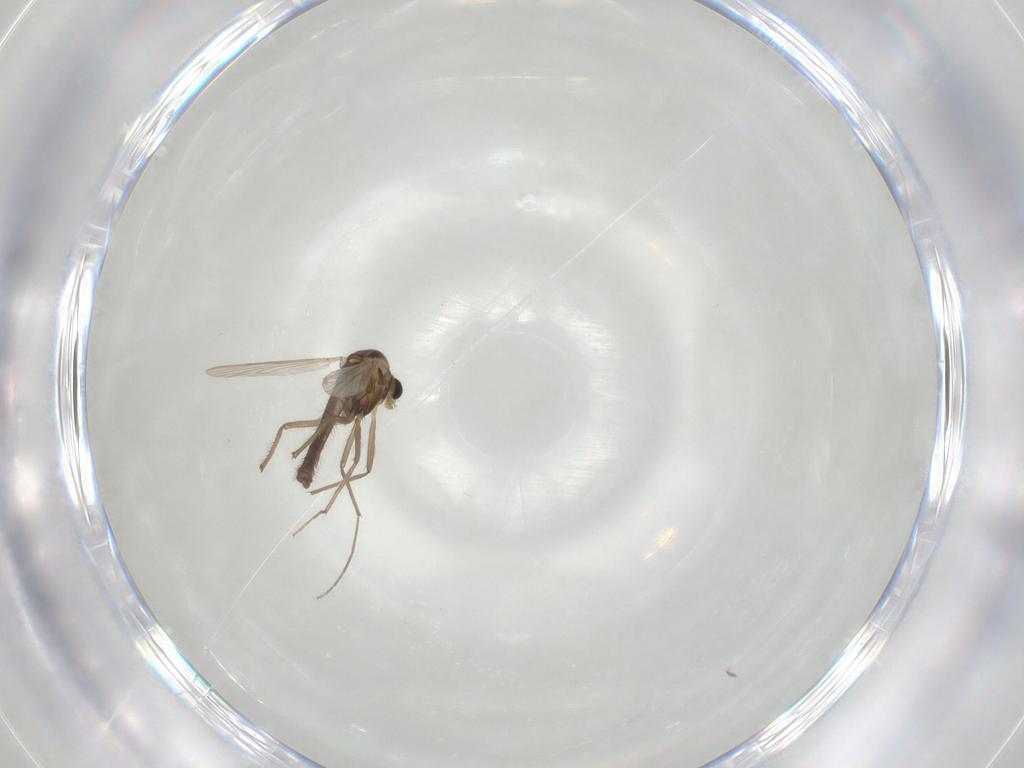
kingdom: Animalia
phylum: Arthropoda
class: Insecta
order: Diptera
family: Chironomidae
